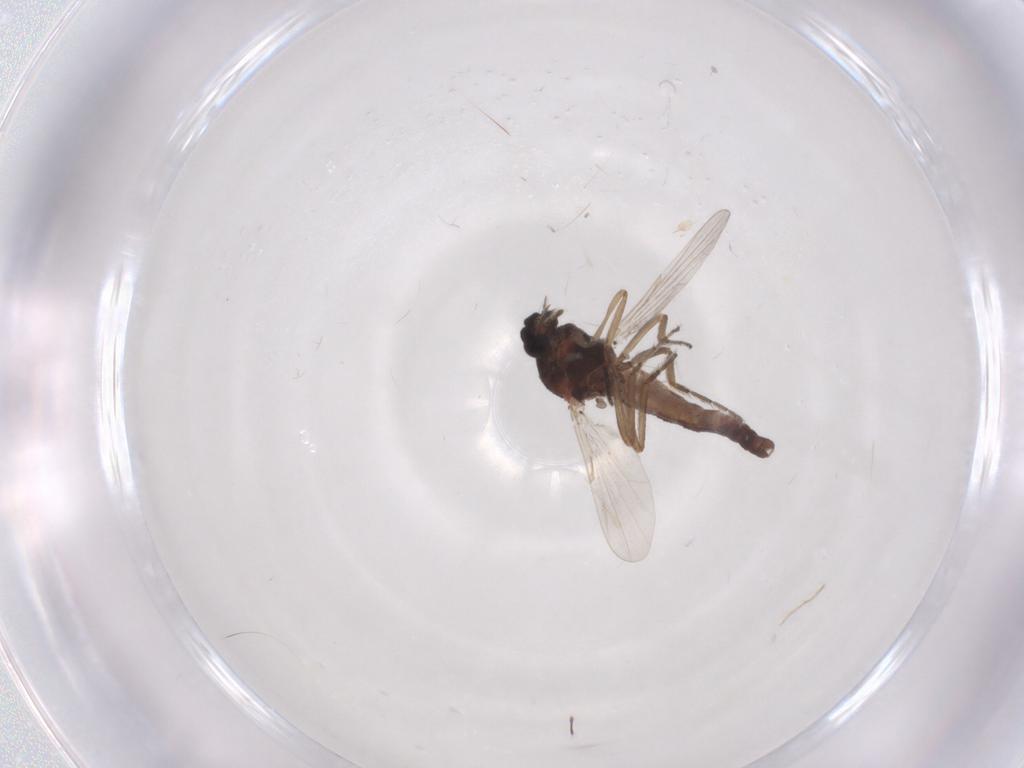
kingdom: Animalia
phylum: Arthropoda
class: Insecta
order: Diptera
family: Ceratopogonidae
